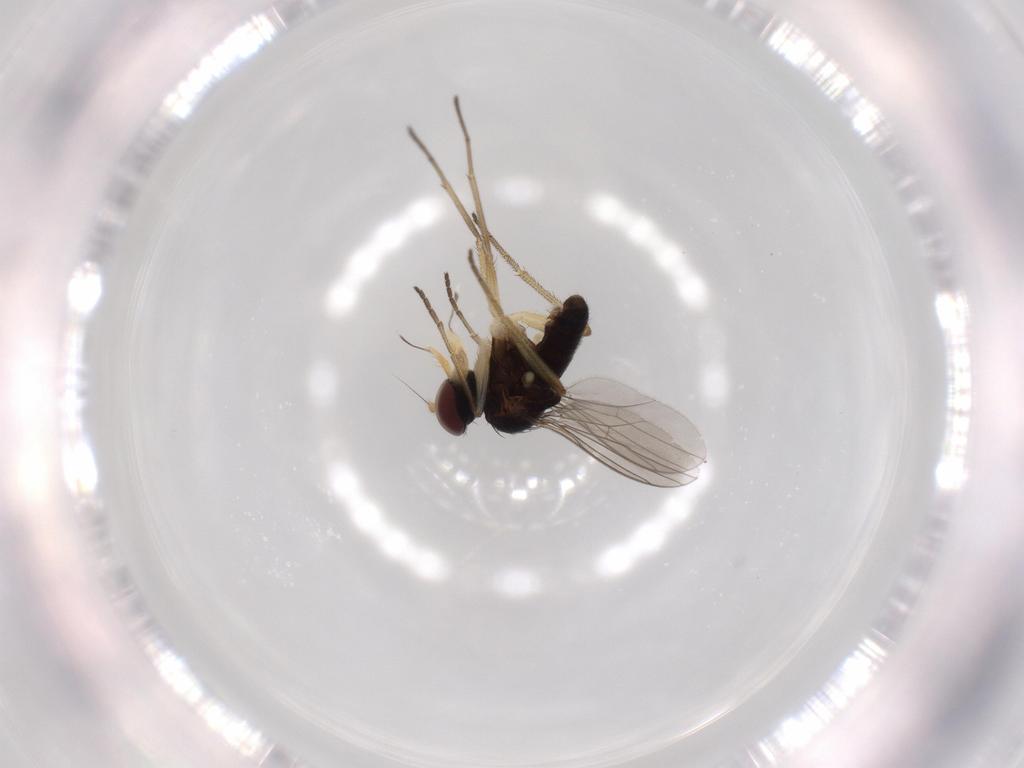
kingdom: Animalia
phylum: Arthropoda
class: Insecta
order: Diptera
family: Dolichopodidae
